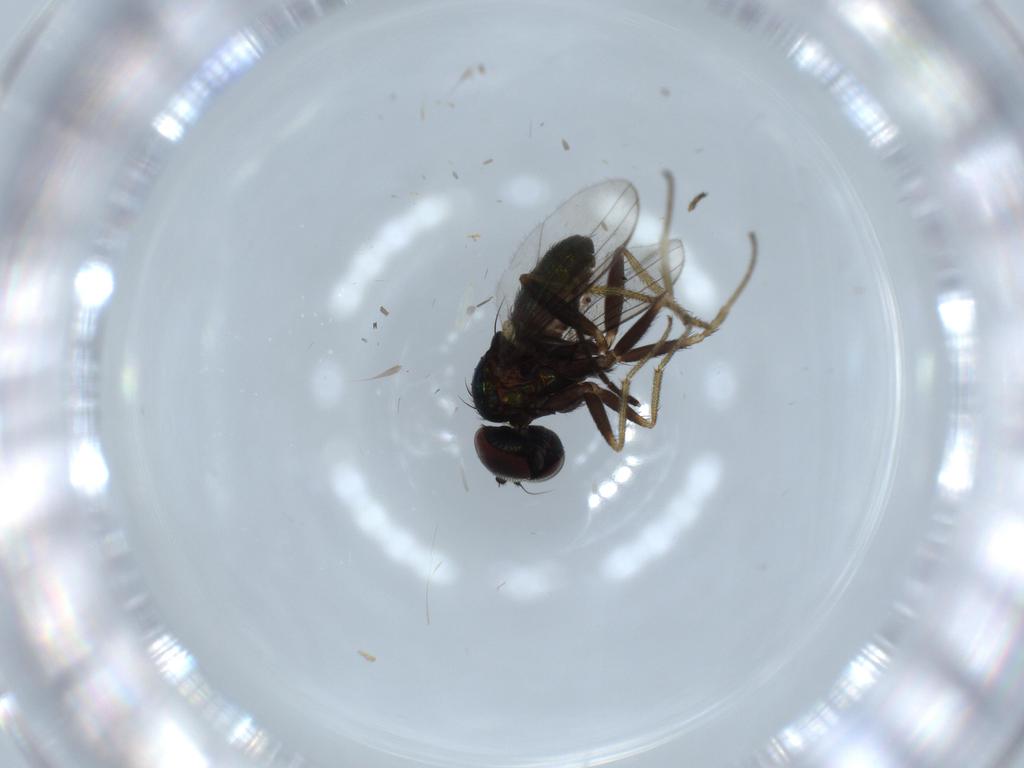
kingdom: Animalia
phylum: Arthropoda
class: Insecta
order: Diptera
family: Sciaridae
